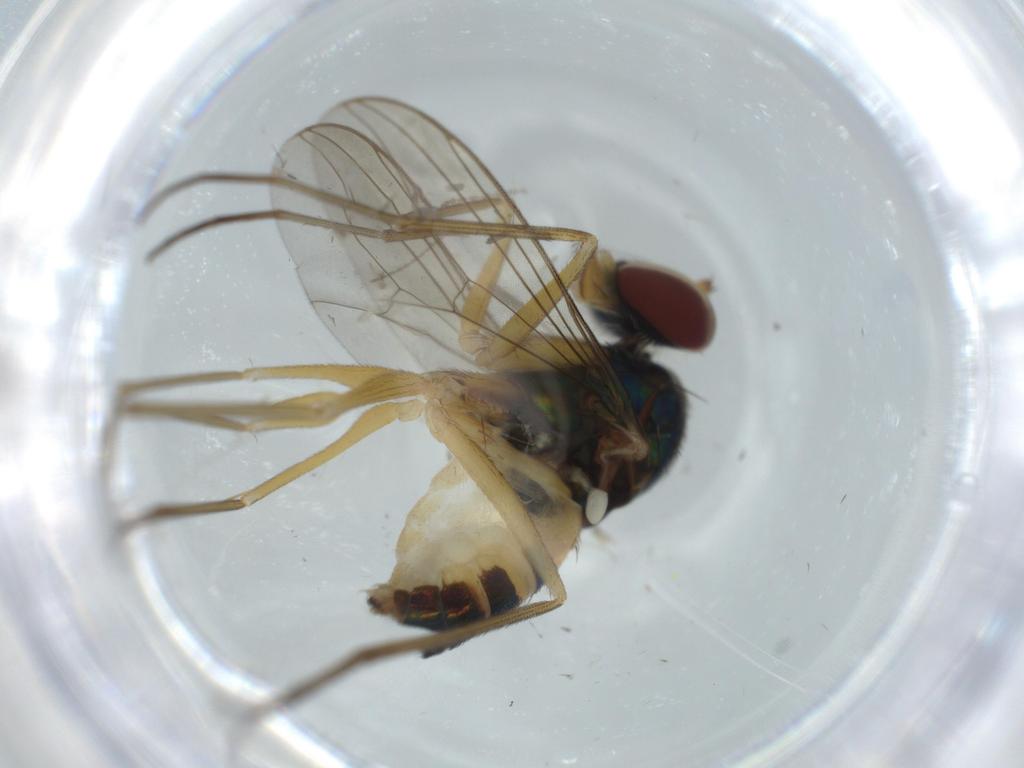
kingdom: Animalia
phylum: Arthropoda
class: Insecta
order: Diptera
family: Cecidomyiidae
